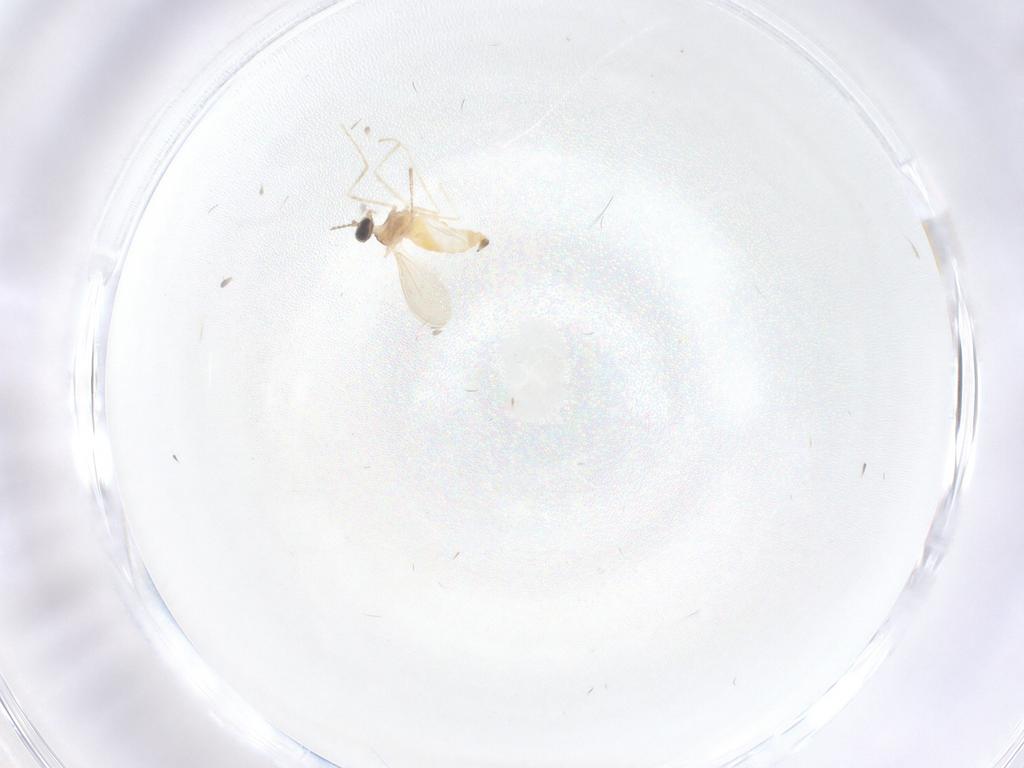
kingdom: Animalia
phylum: Arthropoda
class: Insecta
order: Diptera
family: Cecidomyiidae
